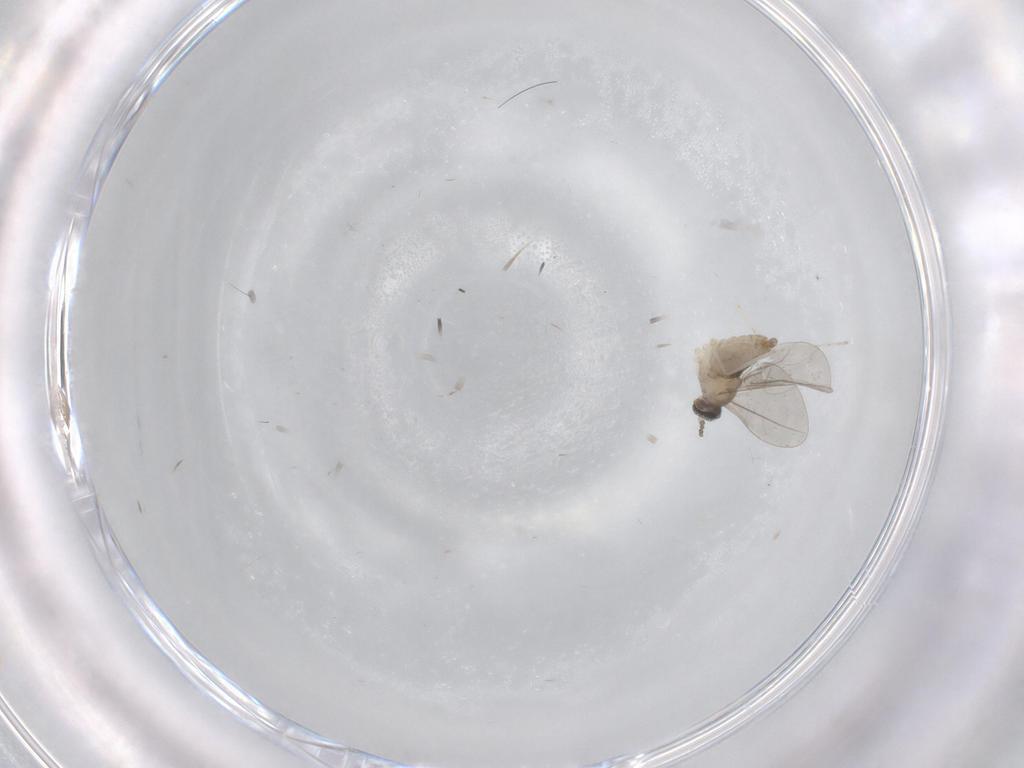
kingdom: Animalia
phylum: Arthropoda
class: Insecta
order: Diptera
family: Cecidomyiidae
